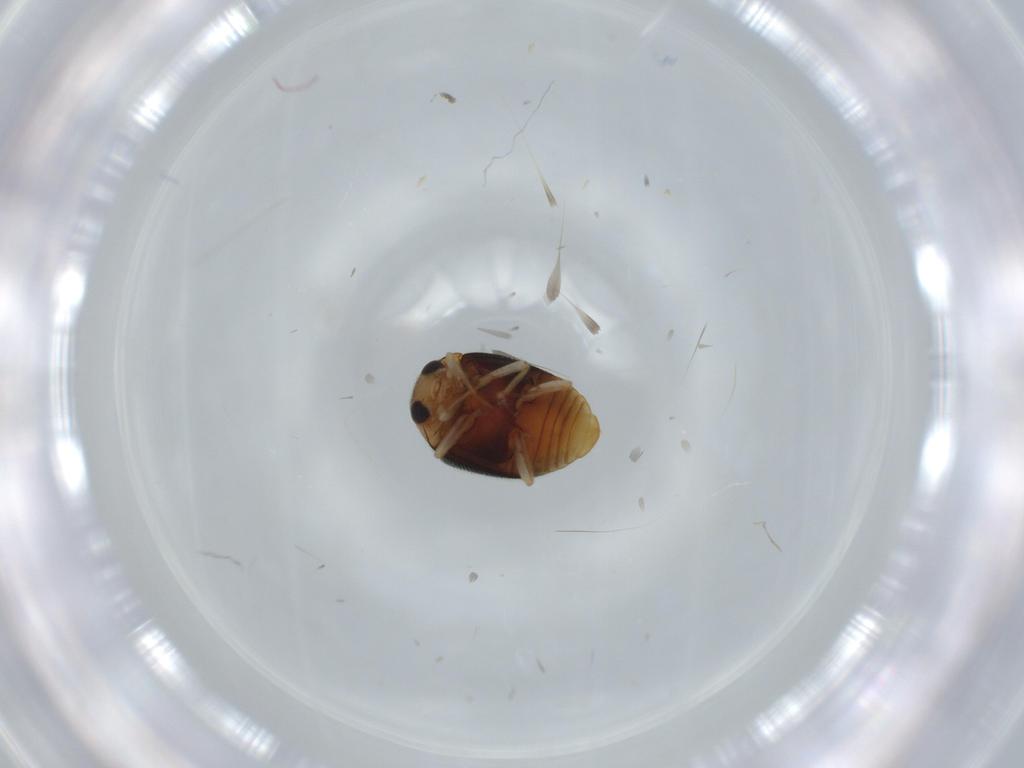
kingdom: Animalia
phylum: Arthropoda
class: Insecta
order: Coleoptera
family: Coccinellidae
